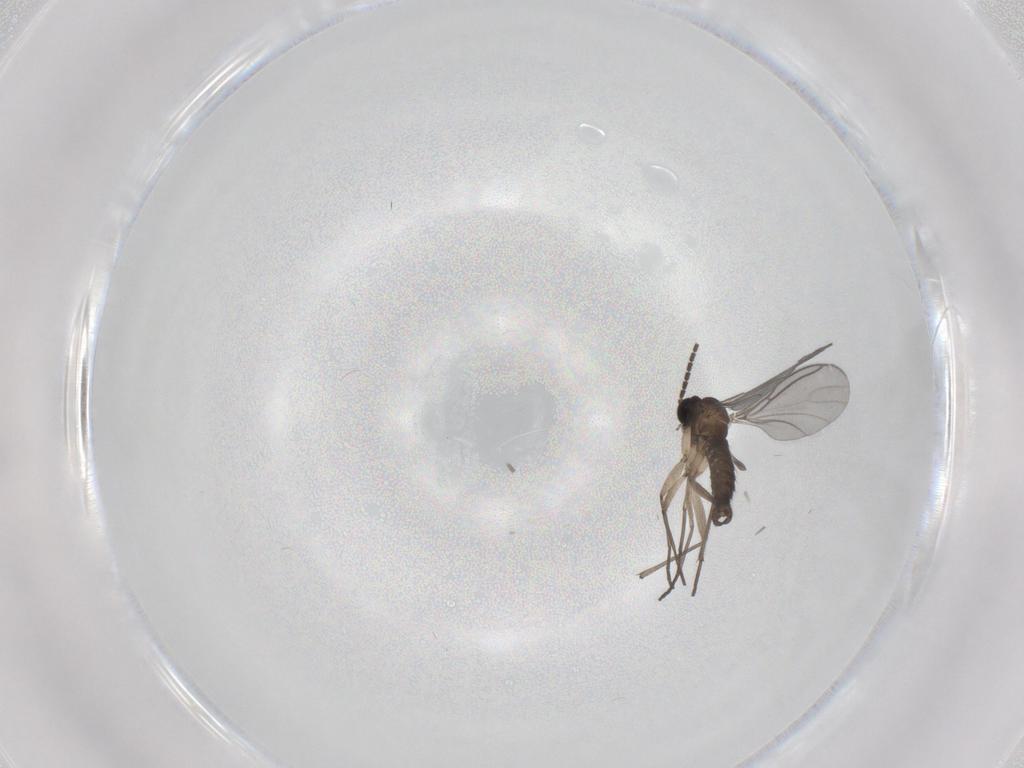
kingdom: Animalia
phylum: Arthropoda
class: Insecta
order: Diptera
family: Sciaridae
